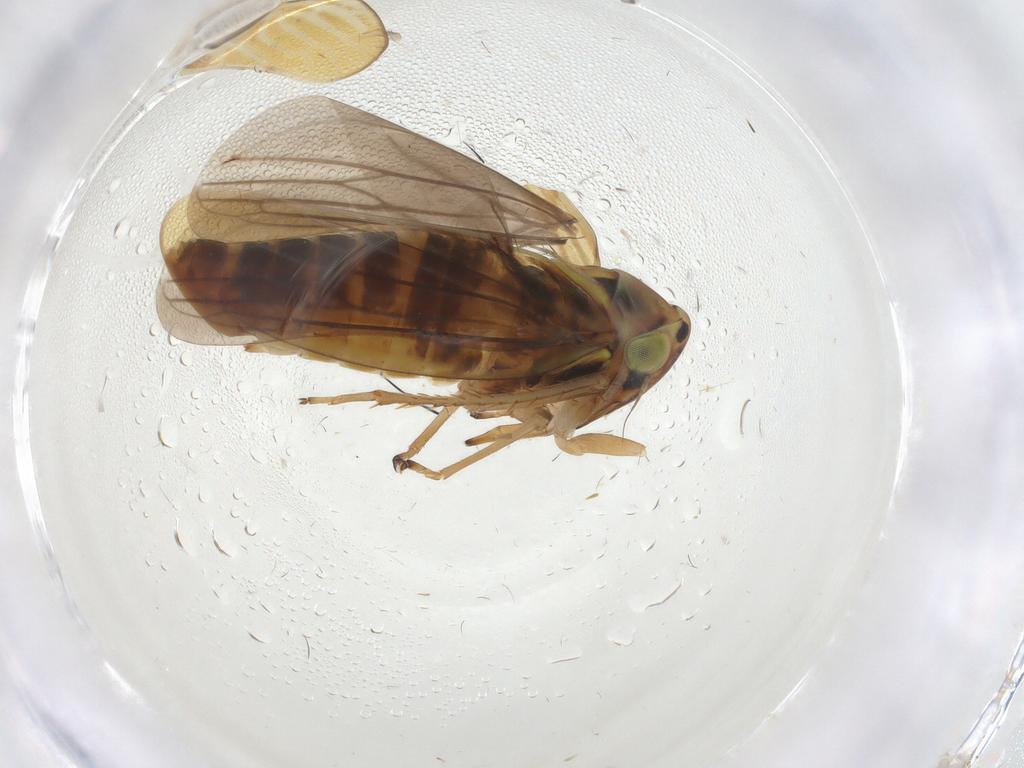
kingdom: Animalia
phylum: Arthropoda
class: Insecta
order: Hemiptera
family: Cicadellidae
